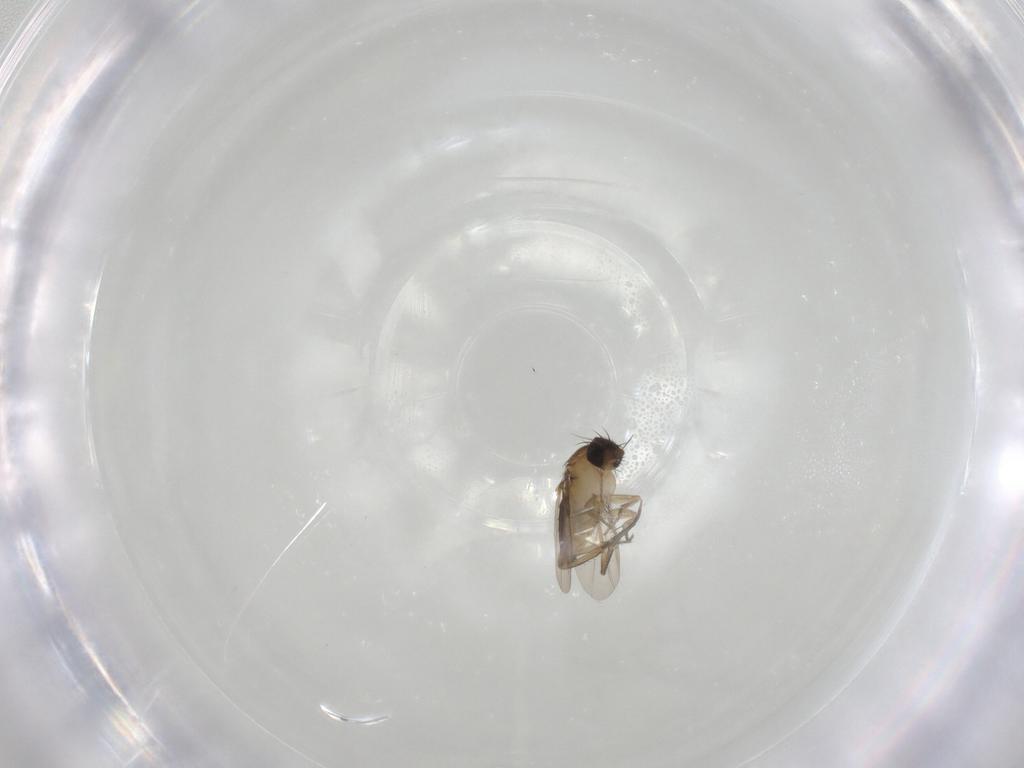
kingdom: Animalia
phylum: Arthropoda
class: Insecta
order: Diptera
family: Phoridae
